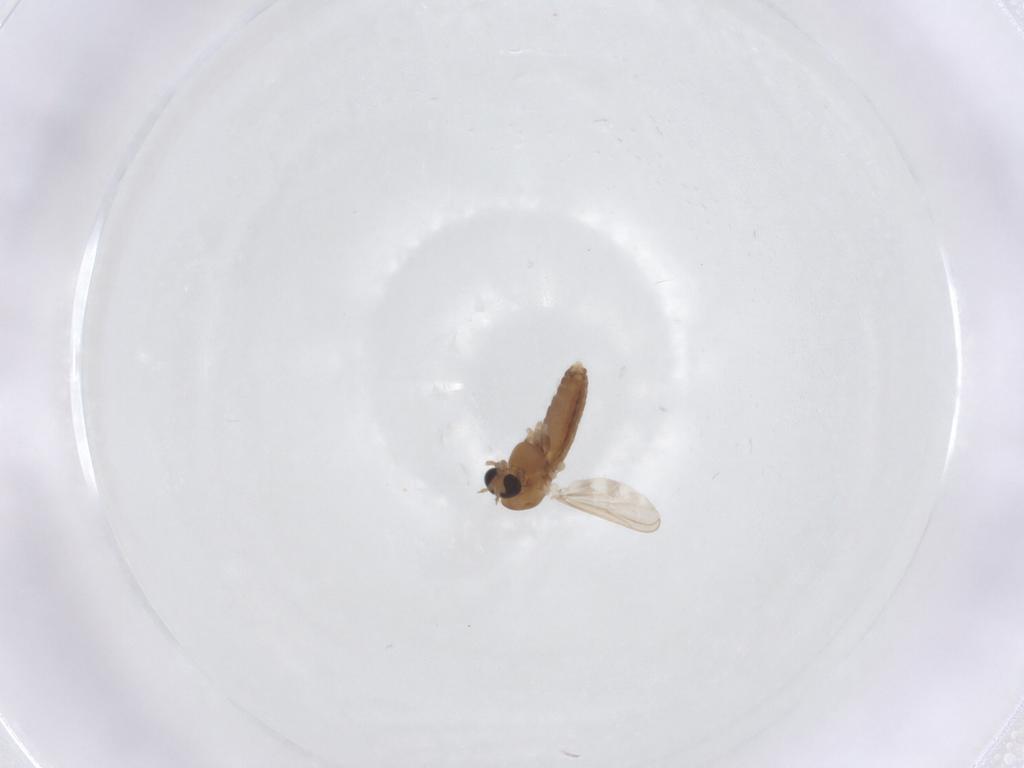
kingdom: Animalia
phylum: Arthropoda
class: Insecta
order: Diptera
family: Chironomidae
